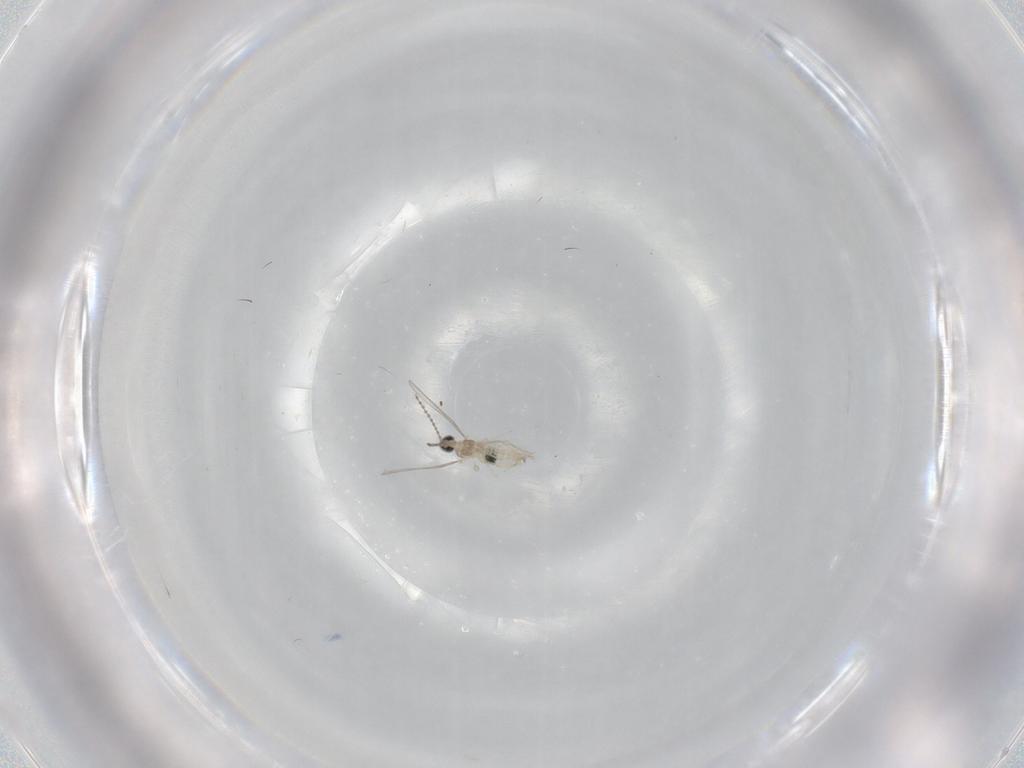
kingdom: Animalia
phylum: Arthropoda
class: Insecta
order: Diptera
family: Cecidomyiidae
